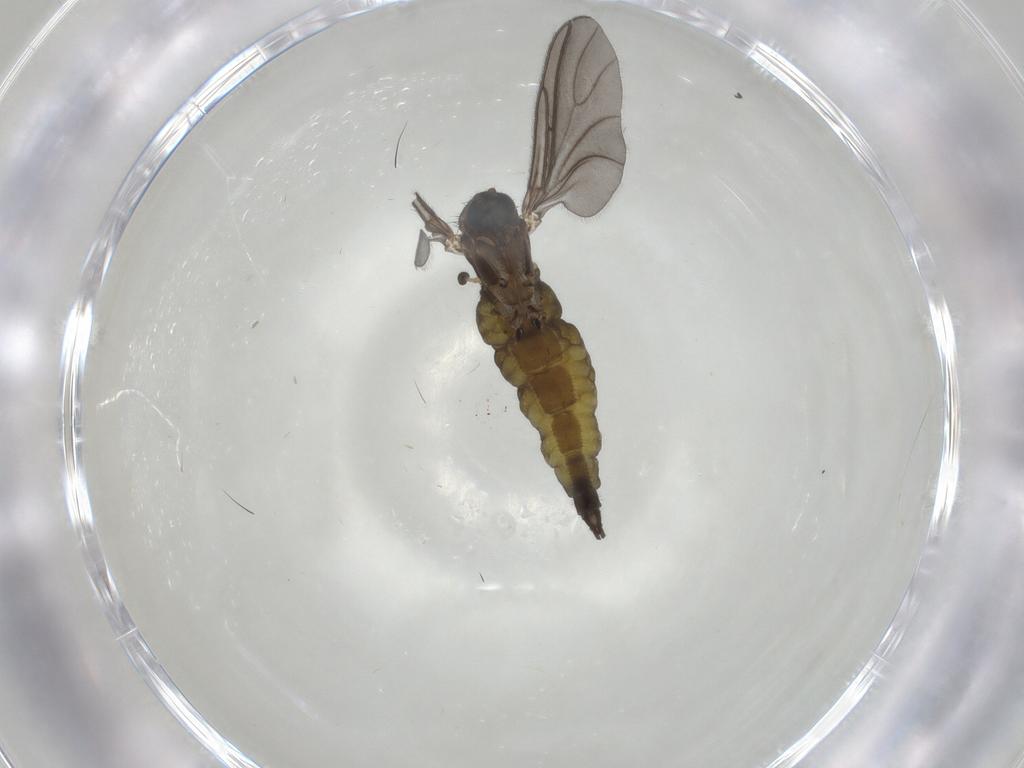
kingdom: Animalia
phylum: Arthropoda
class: Insecta
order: Diptera
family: Sciaridae
